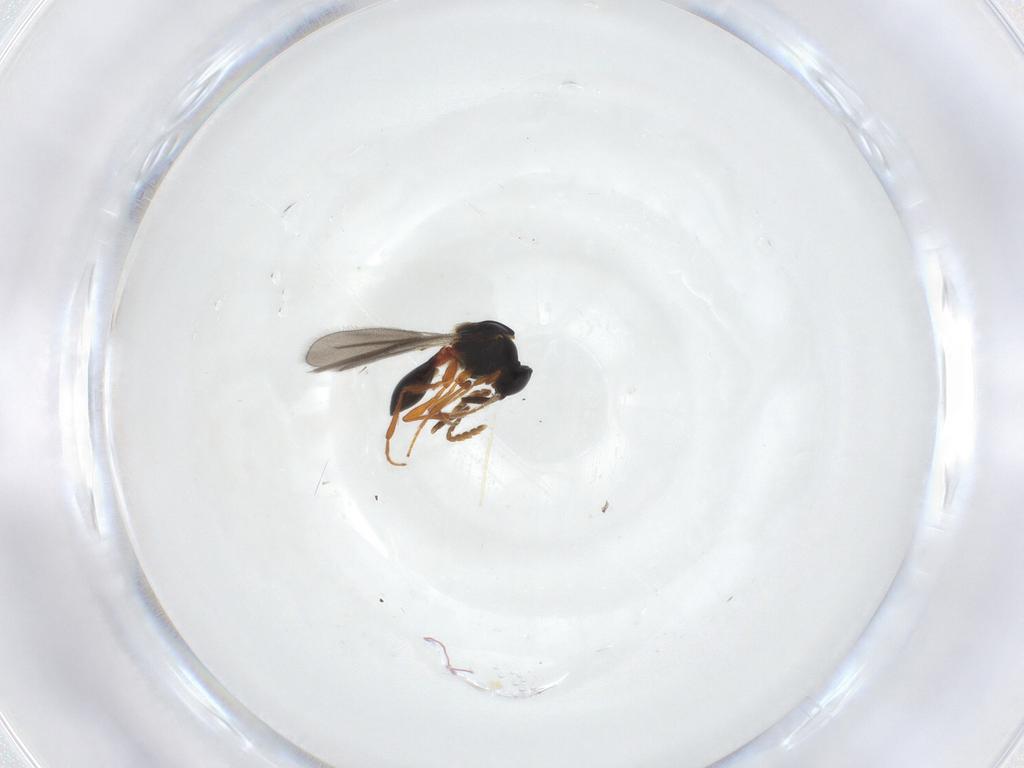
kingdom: Animalia
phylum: Arthropoda
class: Insecta
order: Hymenoptera
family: Platygastridae
